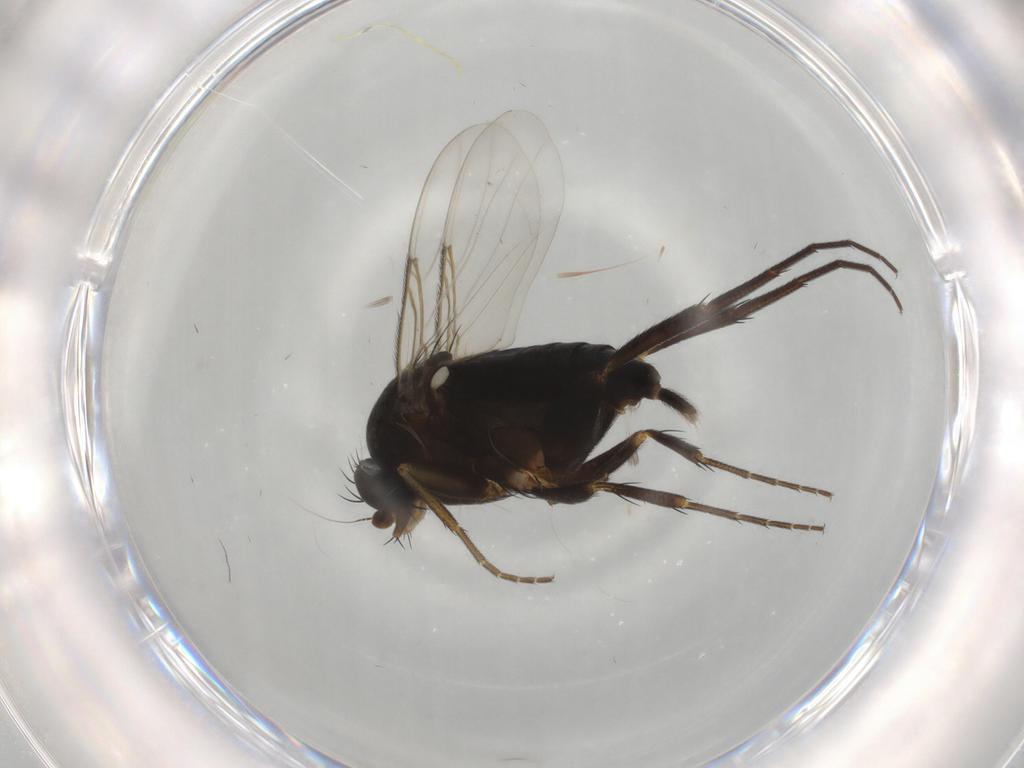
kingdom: Animalia
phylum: Arthropoda
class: Insecta
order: Diptera
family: Phoridae
